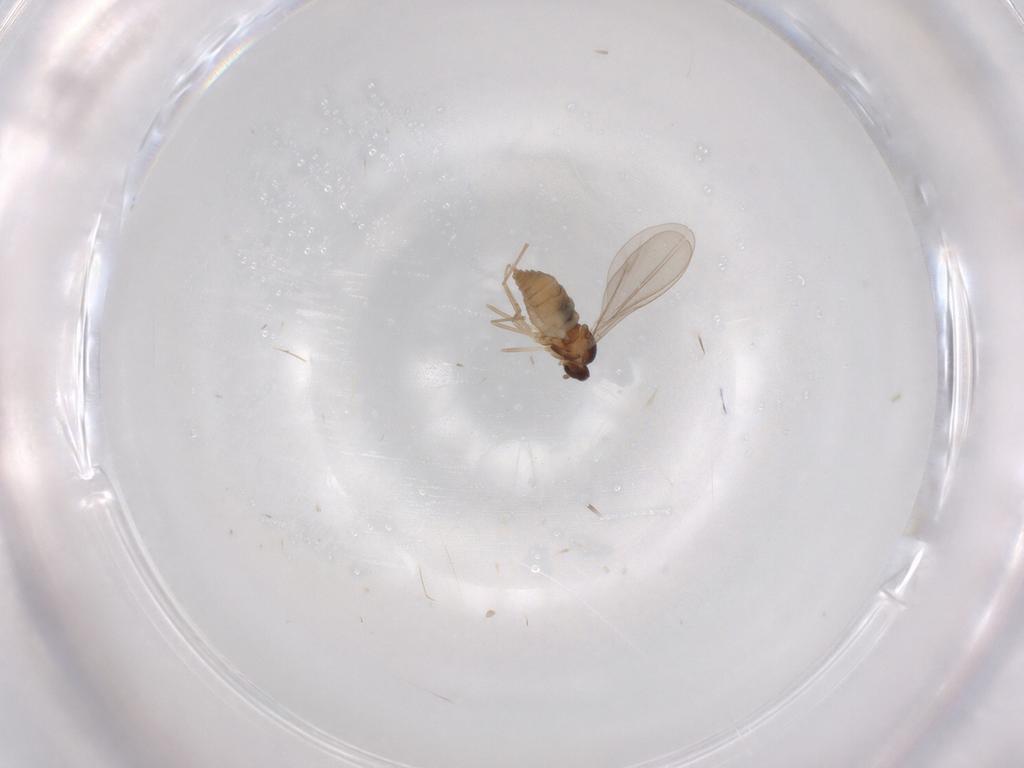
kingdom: Animalia
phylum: Arthropoda
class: Insecta
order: Diptera
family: Cecidomyiidae
